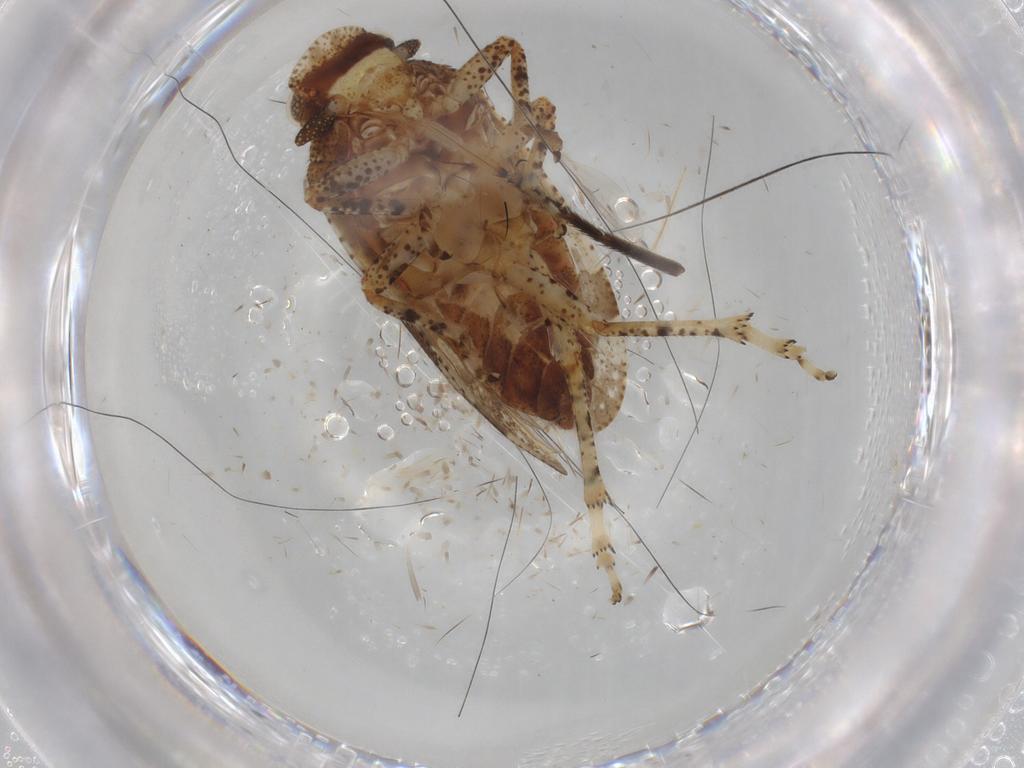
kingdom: Animalia
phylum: Arthropoda
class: Insecta
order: Hemiptera
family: Tettigometridae
